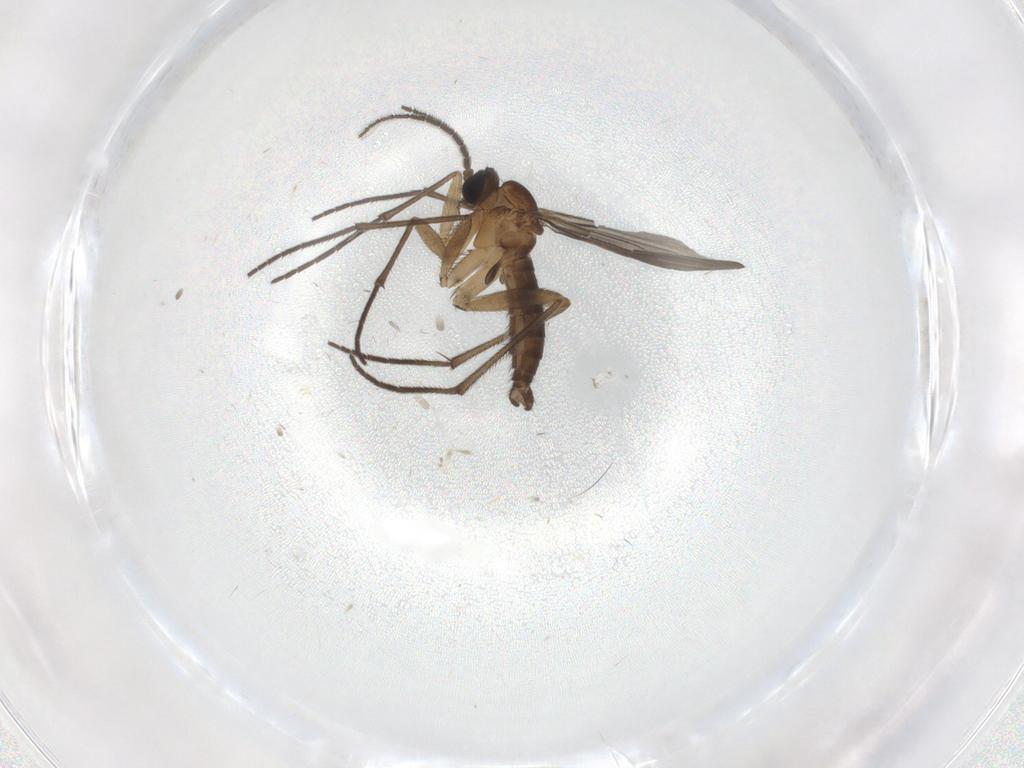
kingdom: Animalia
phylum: Arthropoda
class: Insecta
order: Diptera
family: Sciaridae
